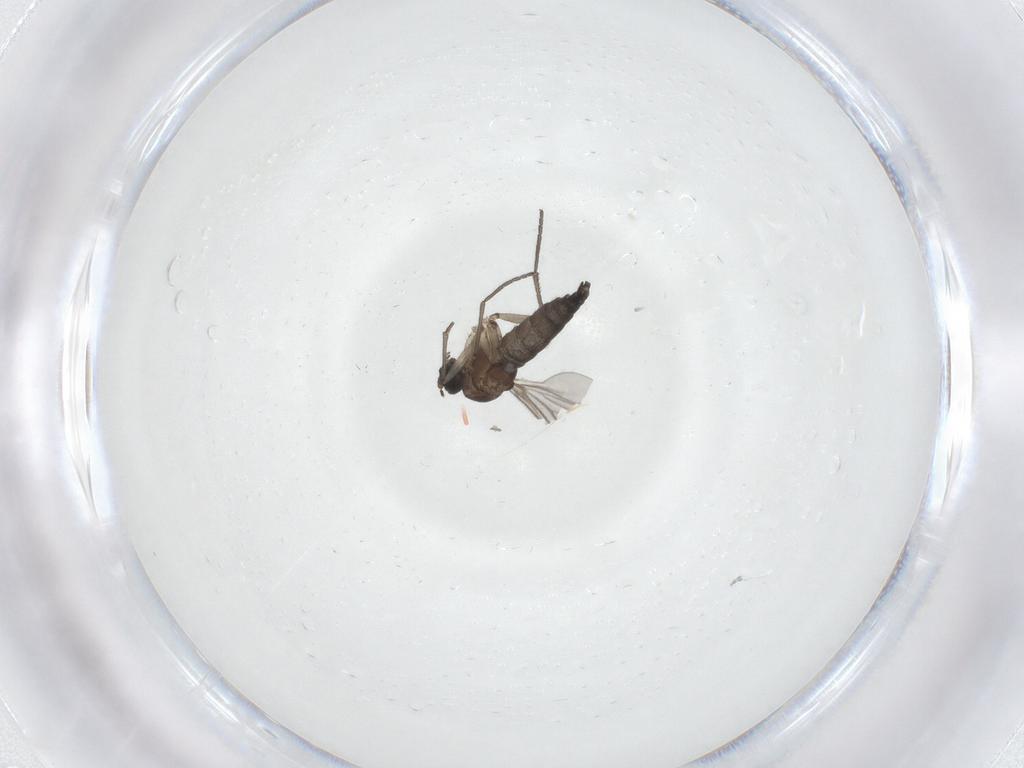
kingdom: Animalia
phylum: Arthropoda
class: Insecta
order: Diptera
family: Sciaridae
